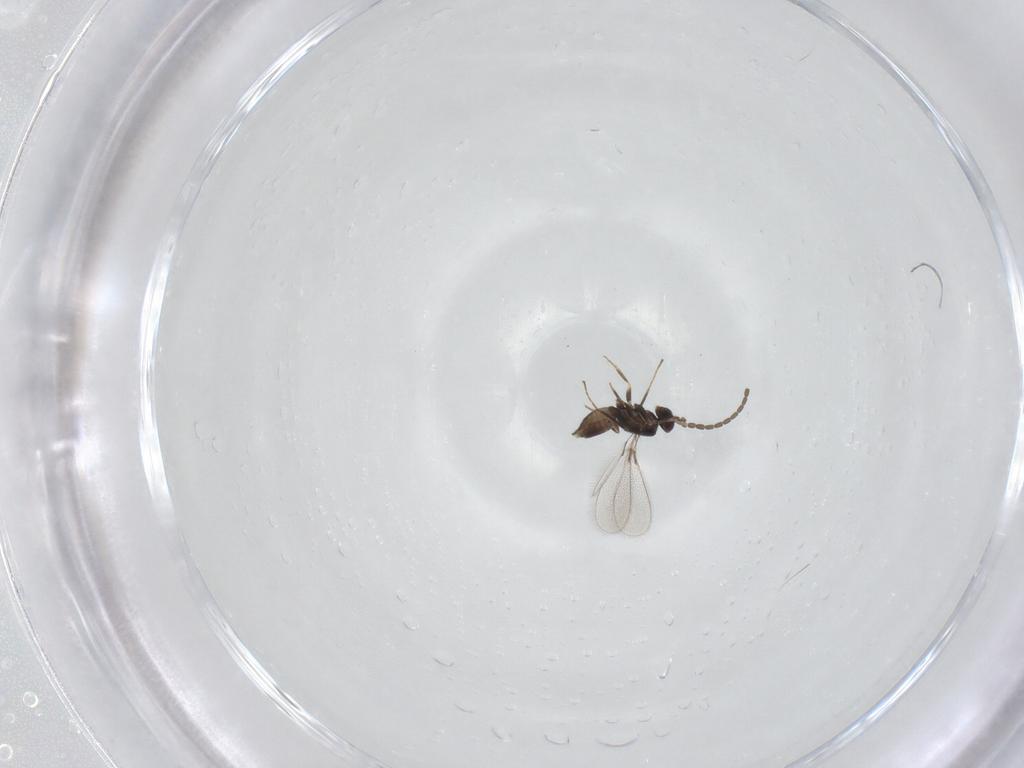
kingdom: Animalia
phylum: Arthropoda
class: Insecta
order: Hymenoptera
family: Mymaridae
